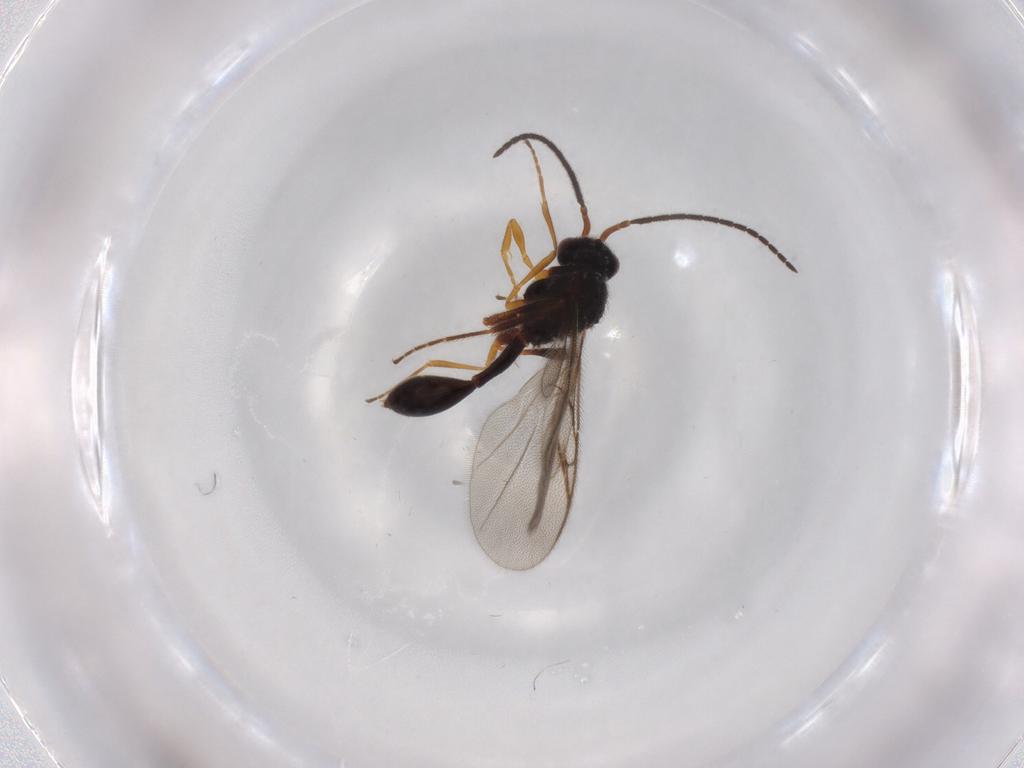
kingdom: Animalia
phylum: Arthropoda
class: Insecta
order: Hymenoptera
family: Diapriidae
